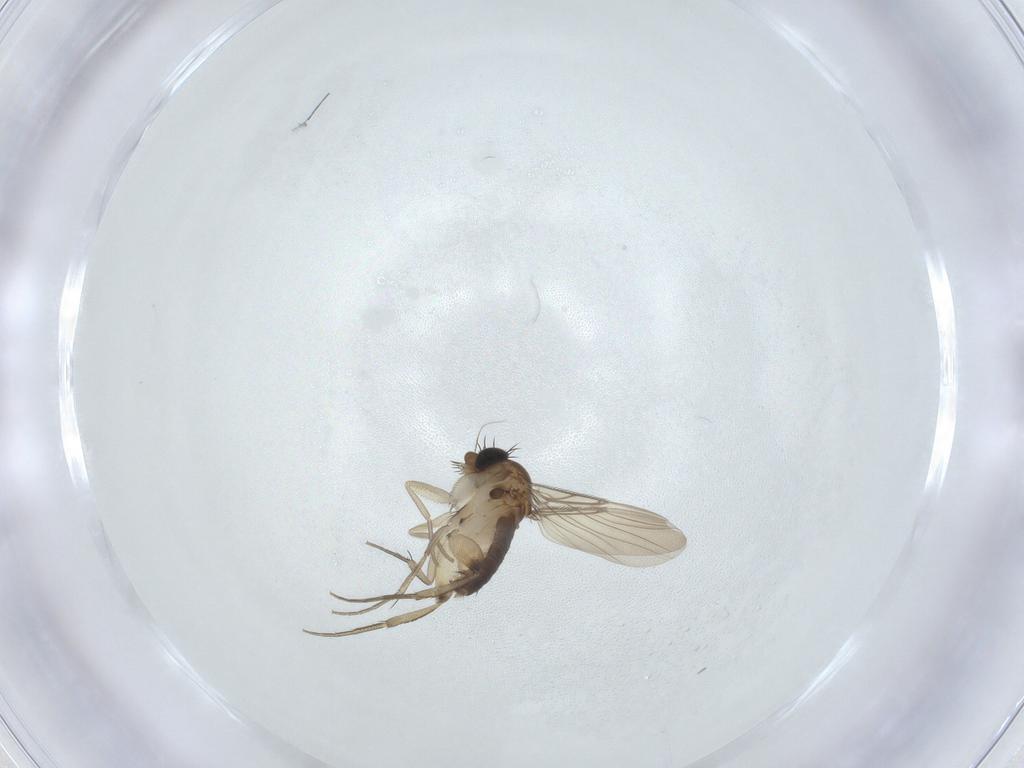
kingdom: Animalia
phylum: Arthropoda
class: Insecta
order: Diptera
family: Phoridae
